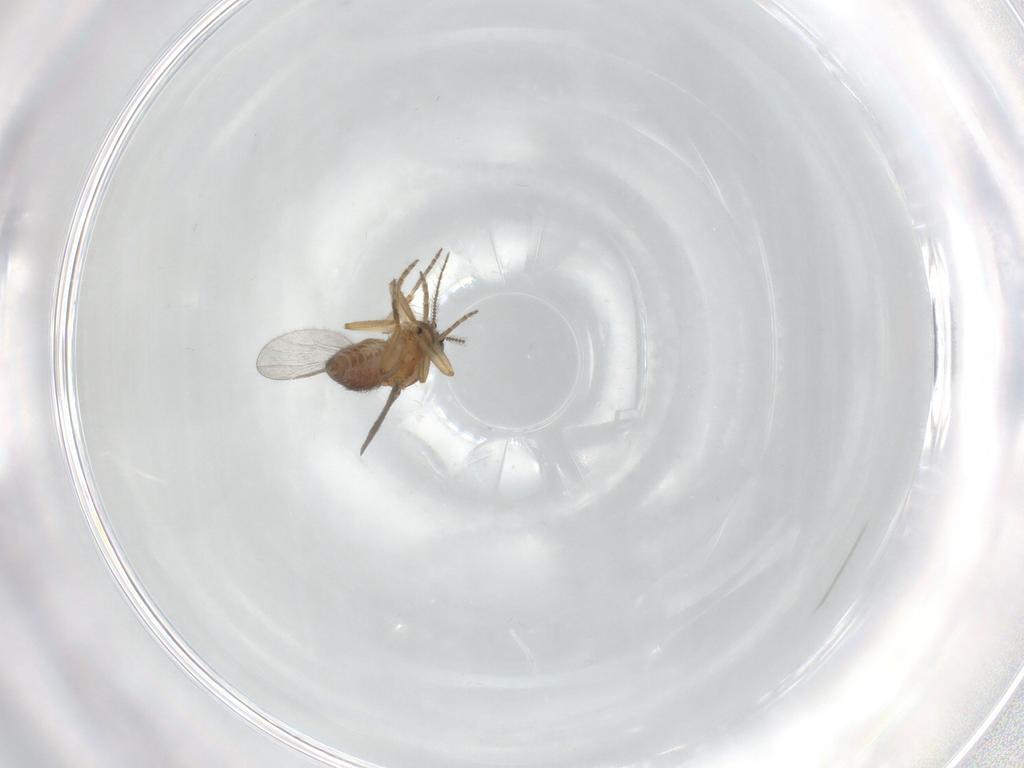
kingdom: Animalia
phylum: Arthropoda
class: Insecta
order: Diptera
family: Ceratopogonidae
